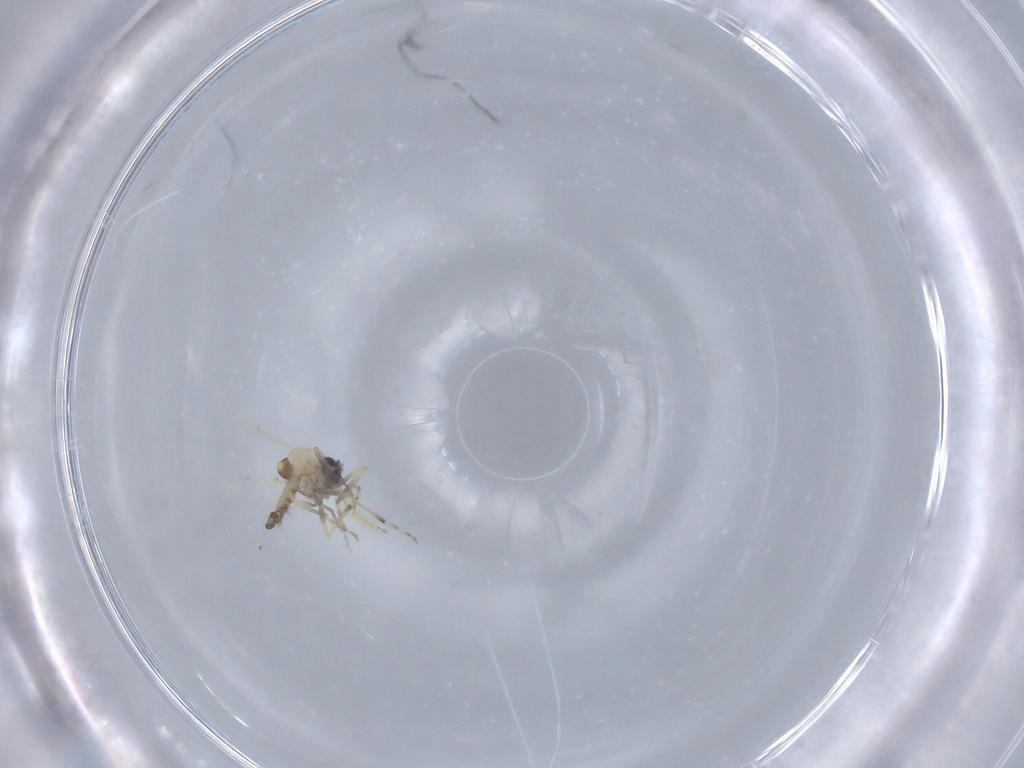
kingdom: Animalia
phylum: Arthropoda
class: Insecta
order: Diptera
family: Ceratopogonidae
